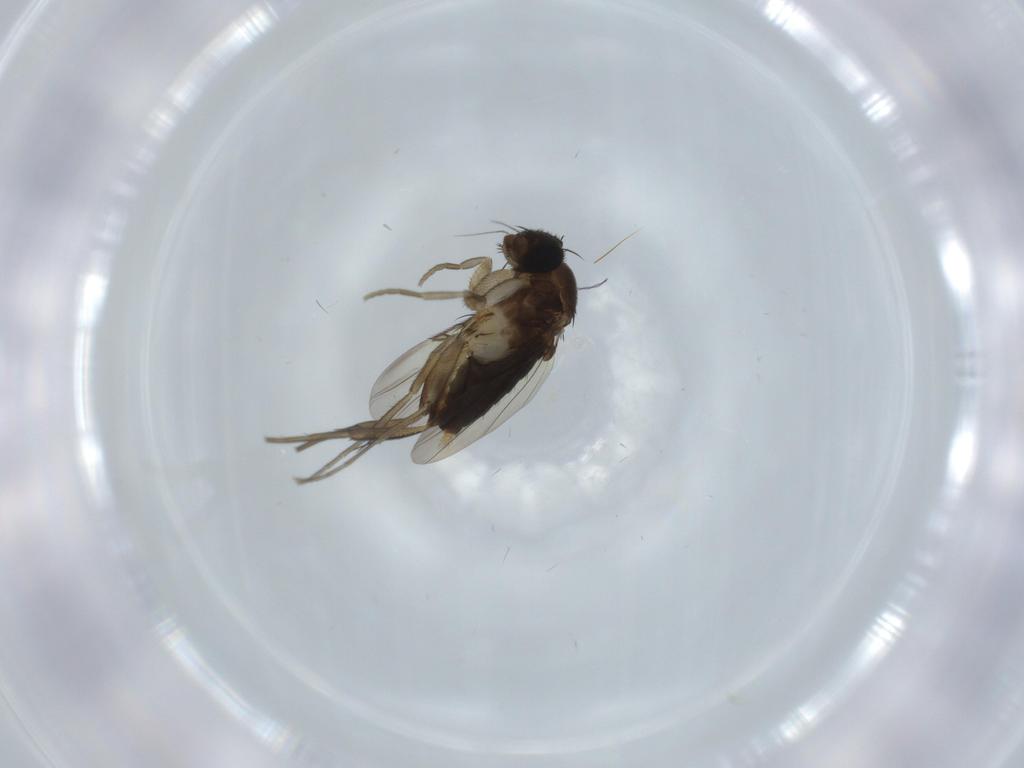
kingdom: Animalia
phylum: Arthropoda
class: Insecta
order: Diptera
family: Phoridae
